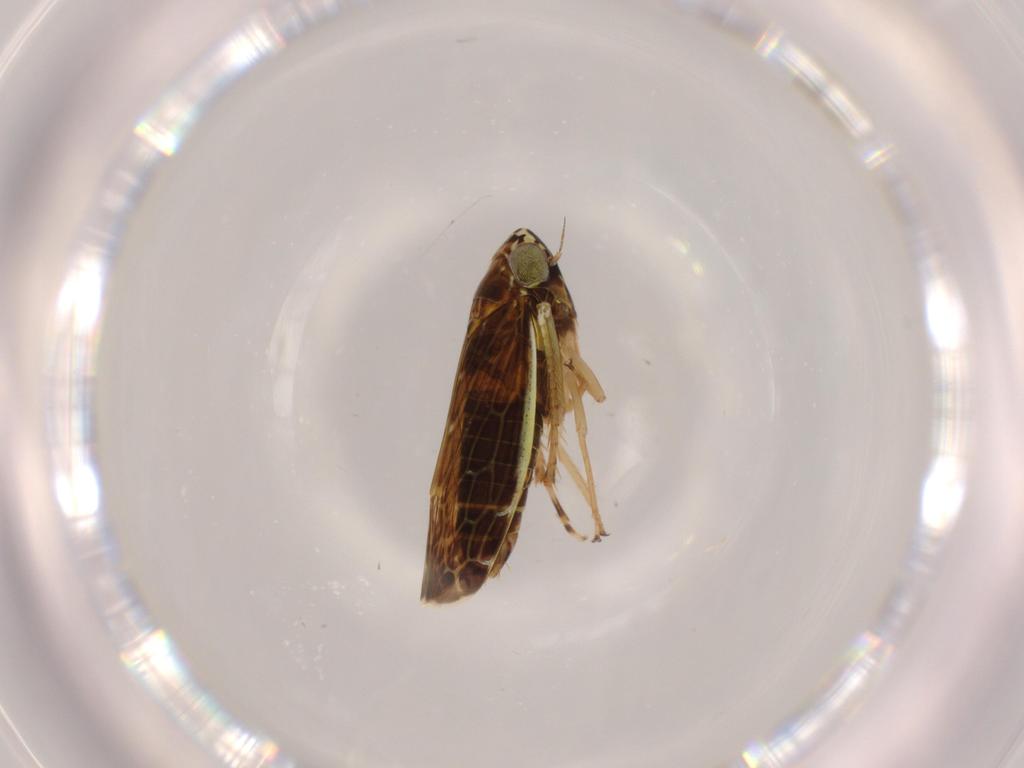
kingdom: Animalia
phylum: Arthropoda
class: Insecta
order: Hemiptera
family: Cicadellidae
